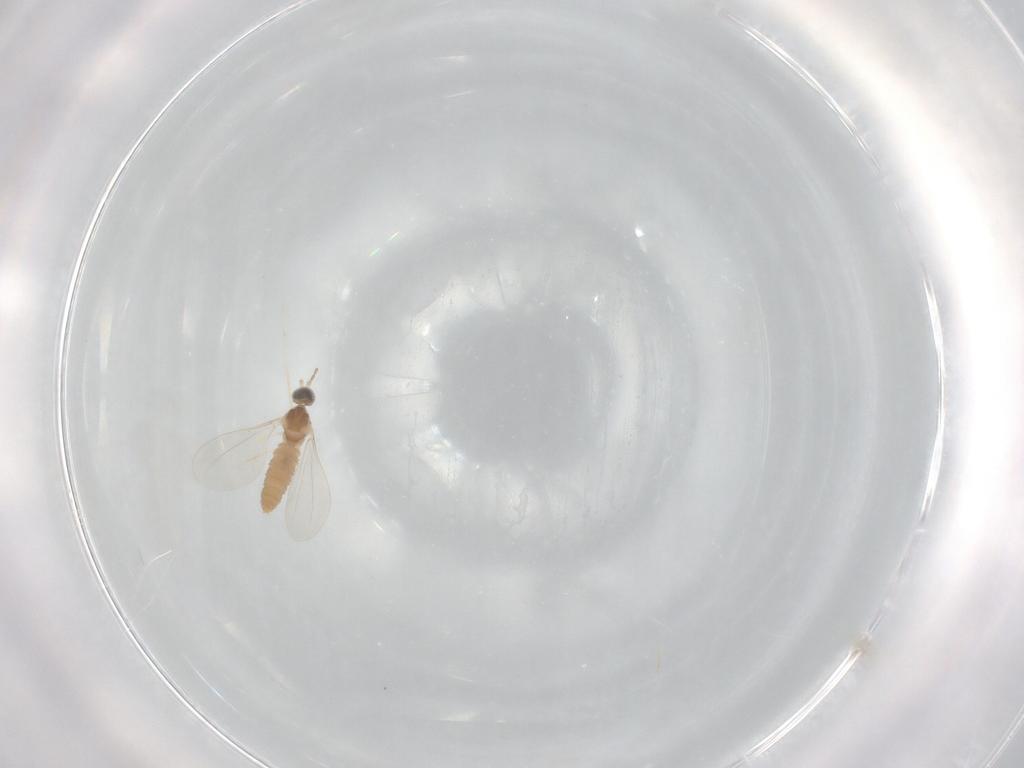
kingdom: Animalia
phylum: Arthropoda
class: Insecta
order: Diptera
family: Cecidomyiidae
